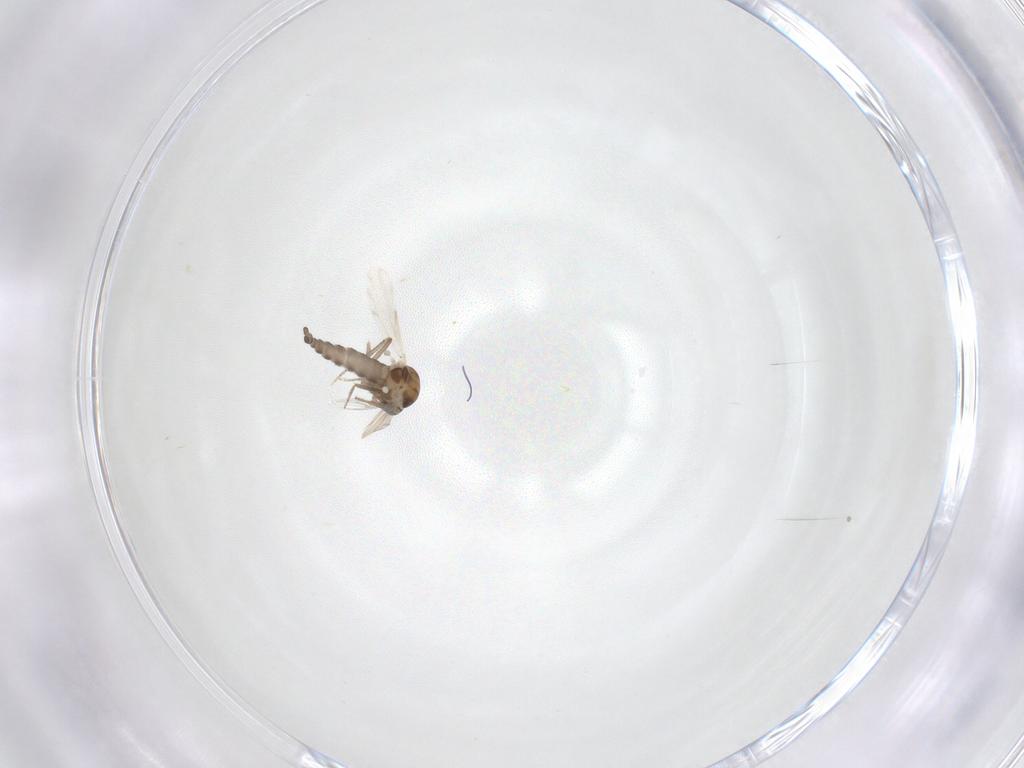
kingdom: Animalia
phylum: Arthropoda
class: Insecta
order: Diptera
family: Ceratopogonidae
